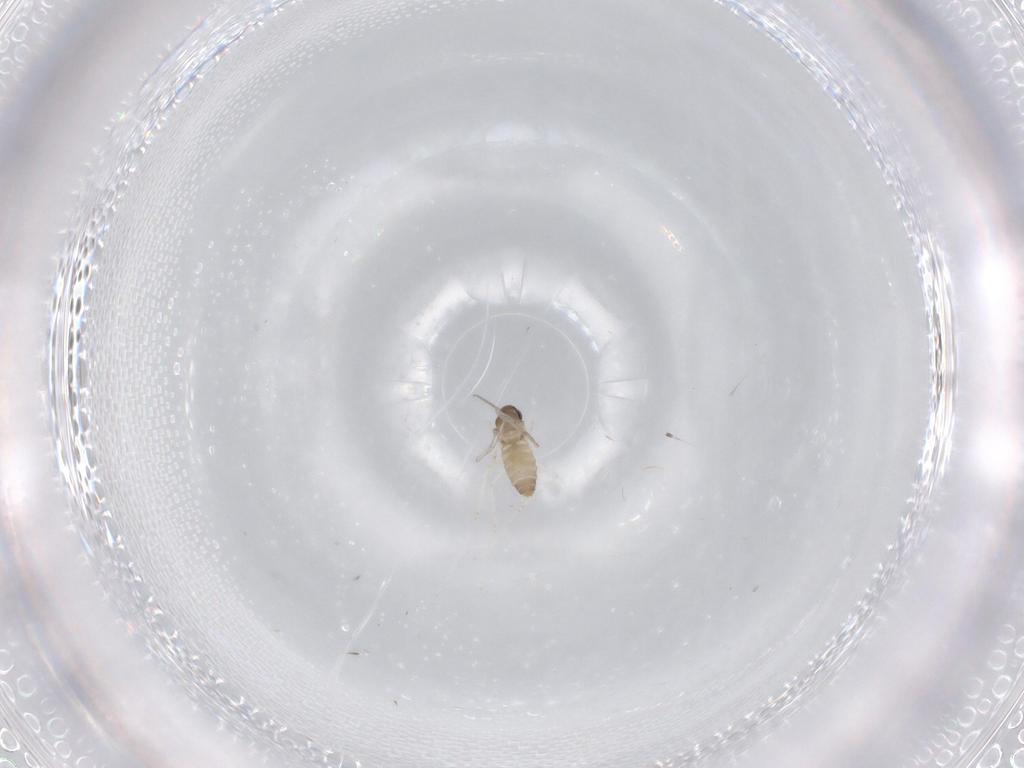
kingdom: Animalia
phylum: Arthropoda
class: Insecta
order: Diptera
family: Cecidomyiidae
